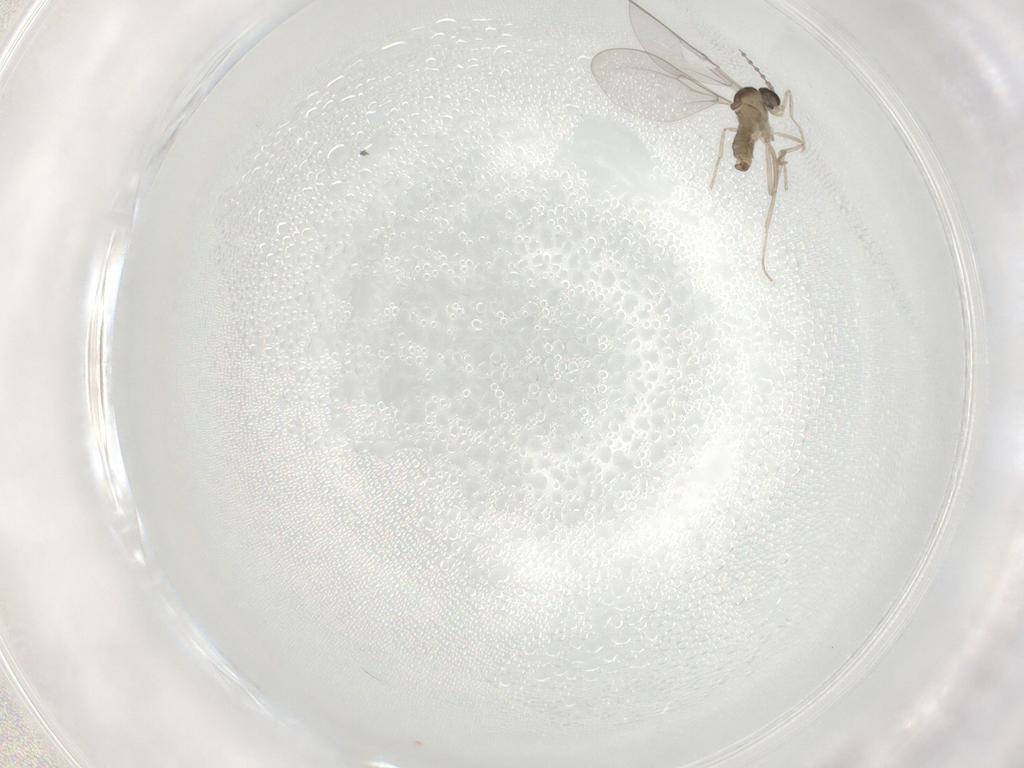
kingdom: Animalia
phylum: Arthropoda
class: Insecta
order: Diptera
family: Cecidomyiidae
